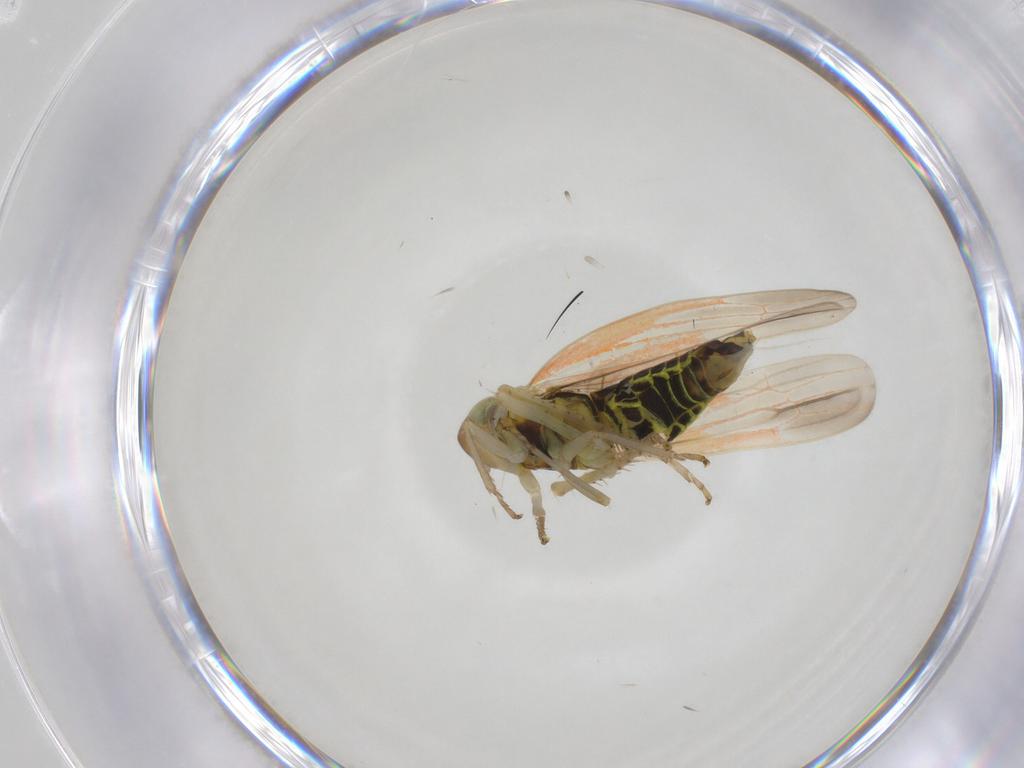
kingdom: Animalia
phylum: Arthropoda
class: Insecta
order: Hemiptera
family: Cicadellidae
